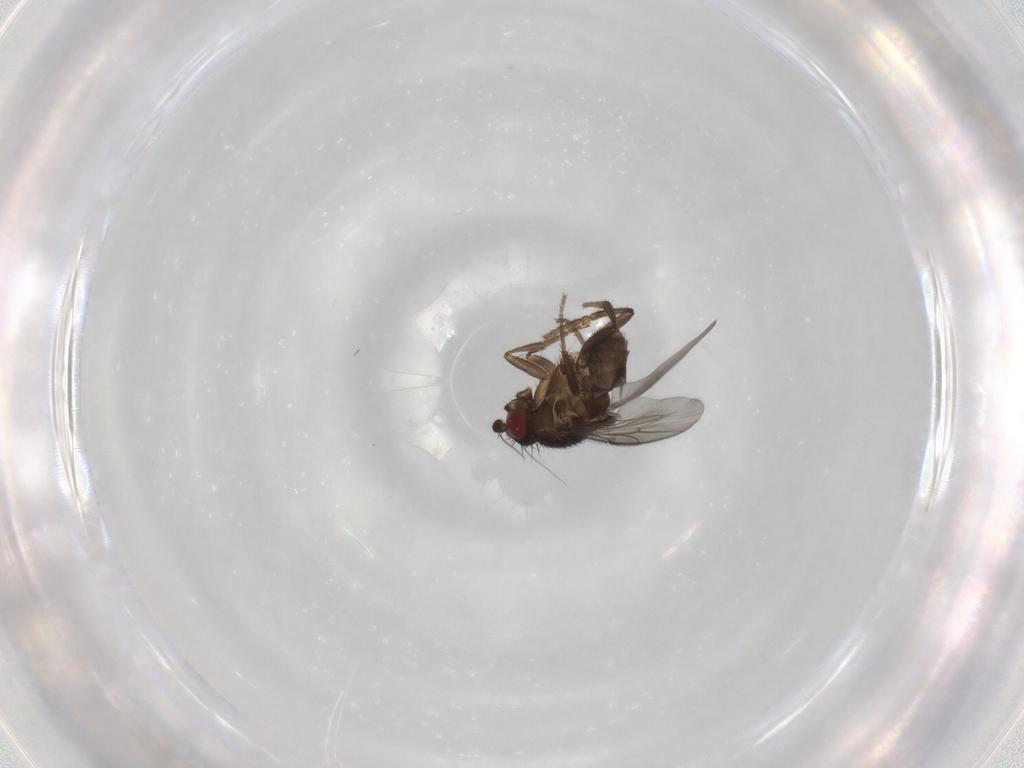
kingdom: Animalia
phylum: Arthropoda
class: Insecta
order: Diptera
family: Sphaeroceridae
